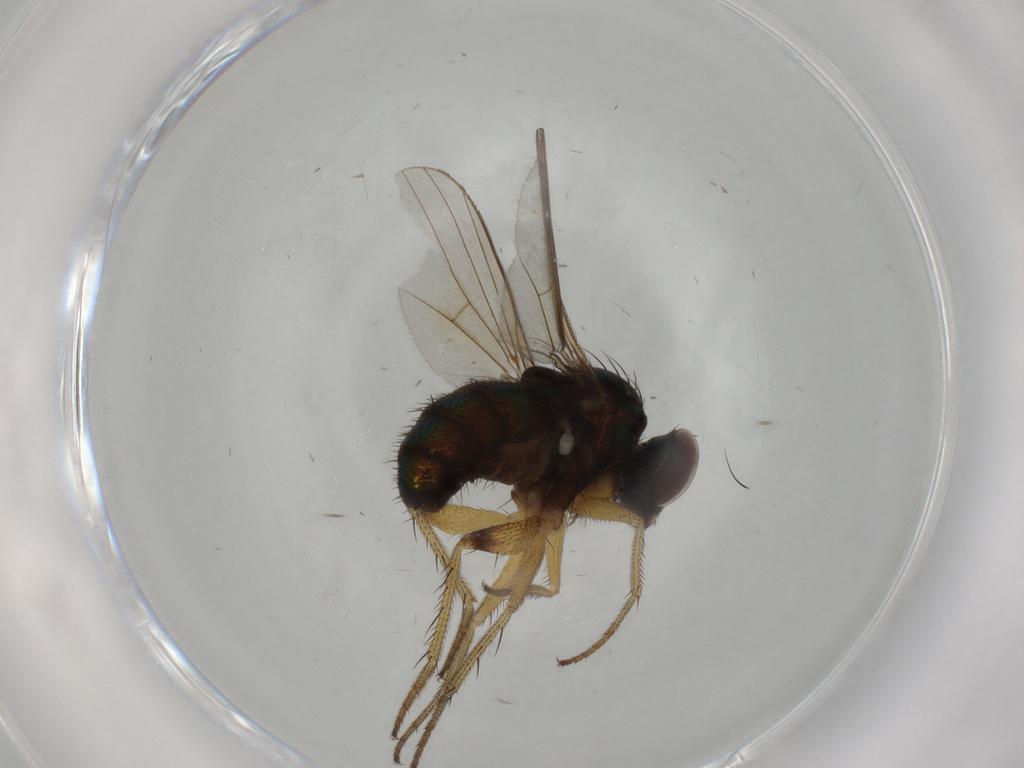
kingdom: Animalia
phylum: Arthropoda
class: Insecta
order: Diptera
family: Dolichopodidae
